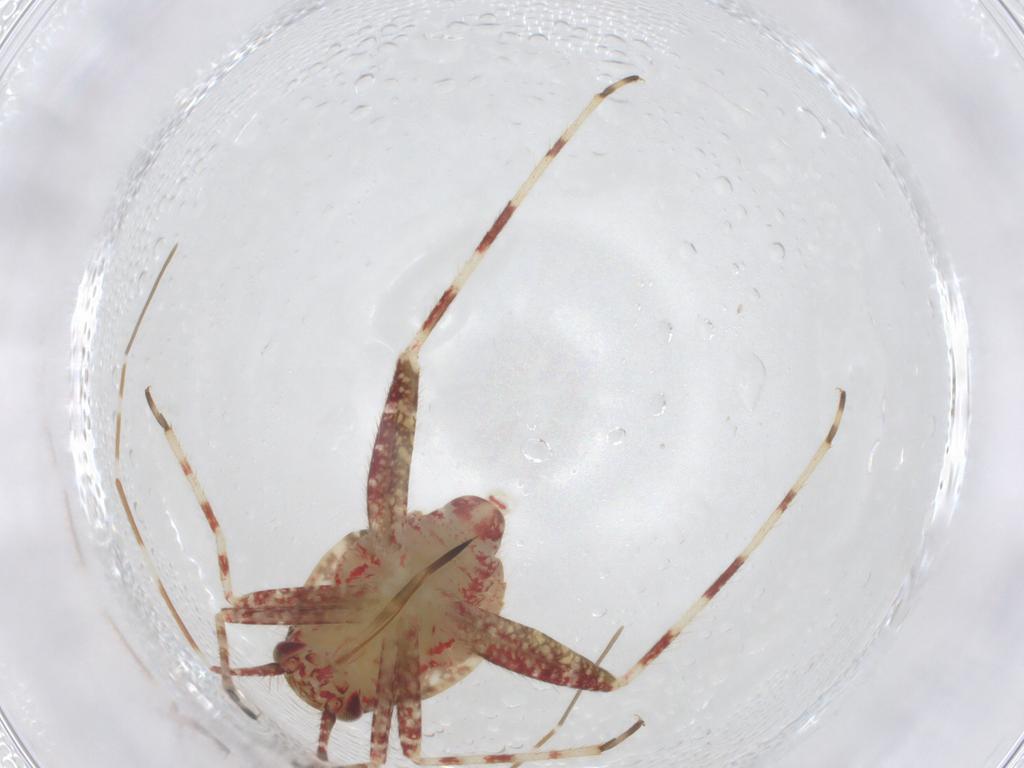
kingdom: Animalia
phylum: Arthropoda
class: Insecta
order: Hemiptera
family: Miridae
